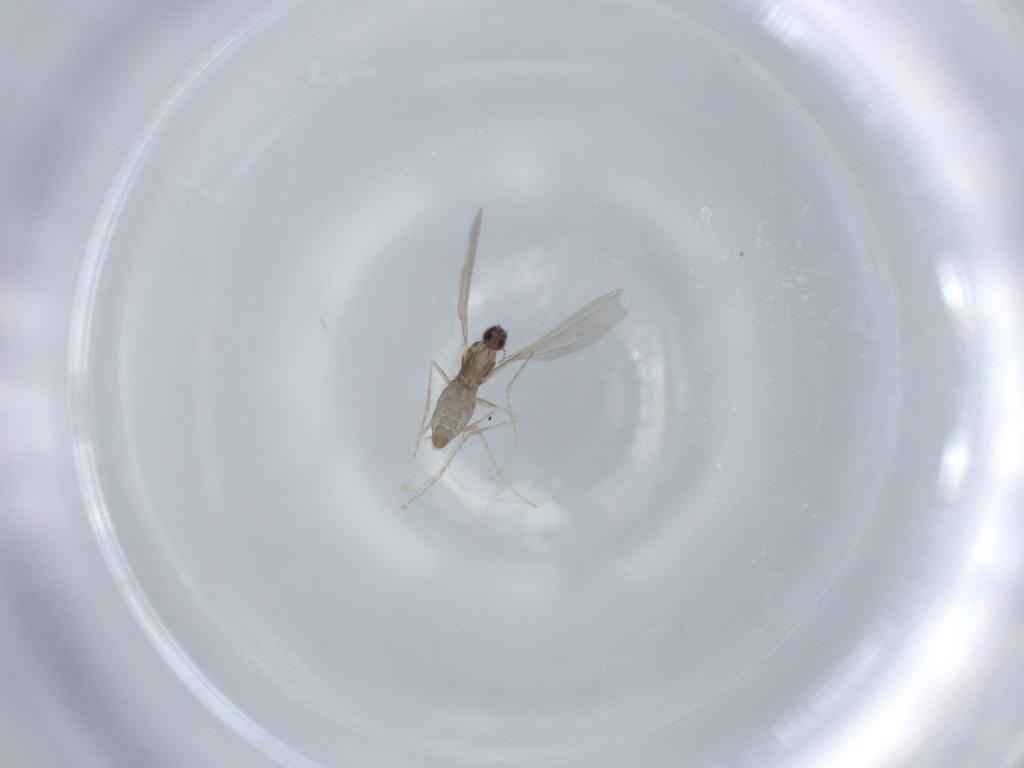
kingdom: Animalia
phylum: Arthropoda
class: Insecta
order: Diptera
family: Cecidomyiidae
